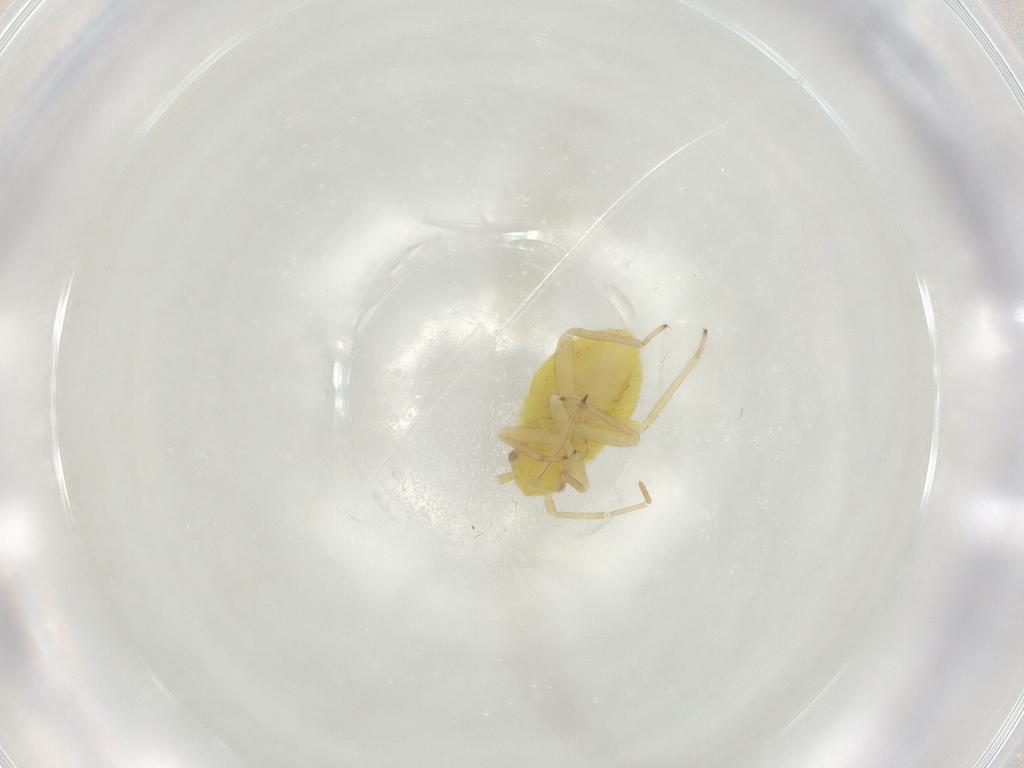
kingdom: Animalia
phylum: Arthropoda
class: Insecta
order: Hemiptera
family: Miridae
